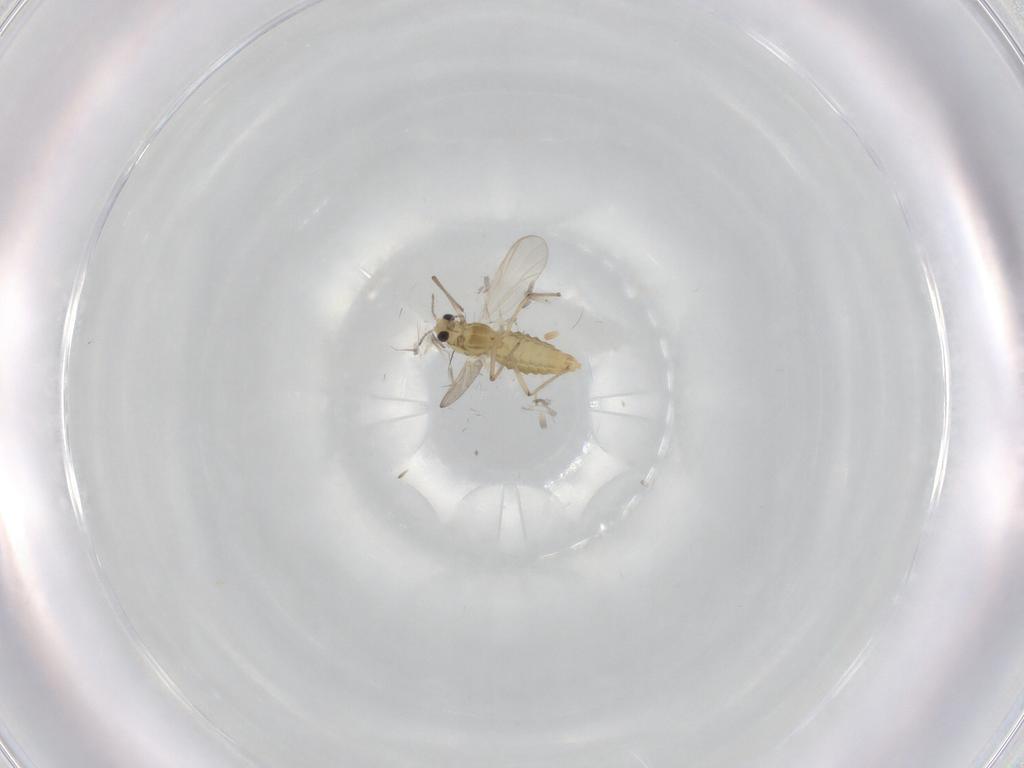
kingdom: Animalia
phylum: Arthropoda
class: Insecta
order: Diptera
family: Chironomidae
